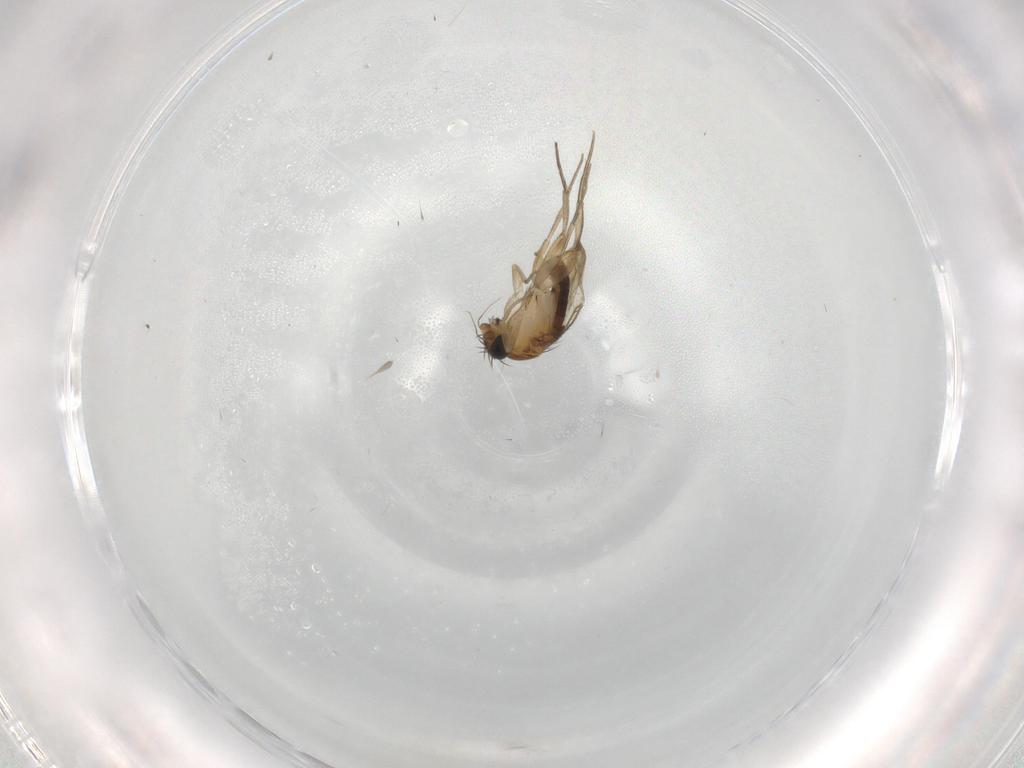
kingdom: Animalia
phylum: Arthropoda
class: Insecta
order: Diptera
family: Phoridae
